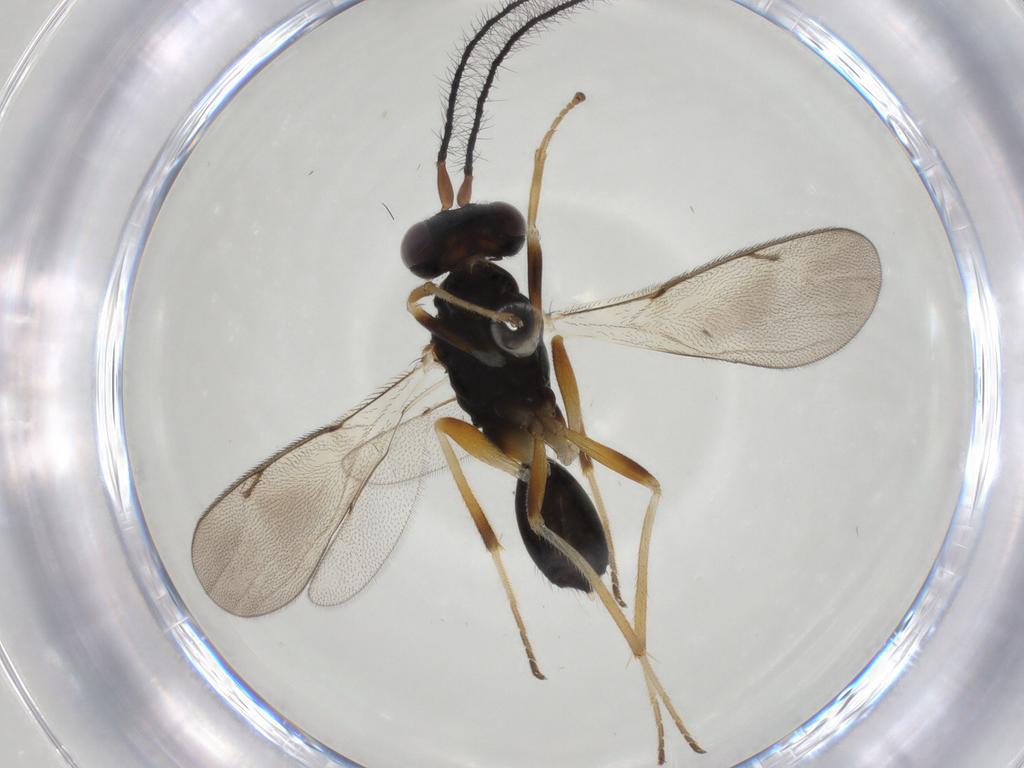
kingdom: Animalia
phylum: Arthropoda
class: Insecta
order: Hymenoptera
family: Diparidae
